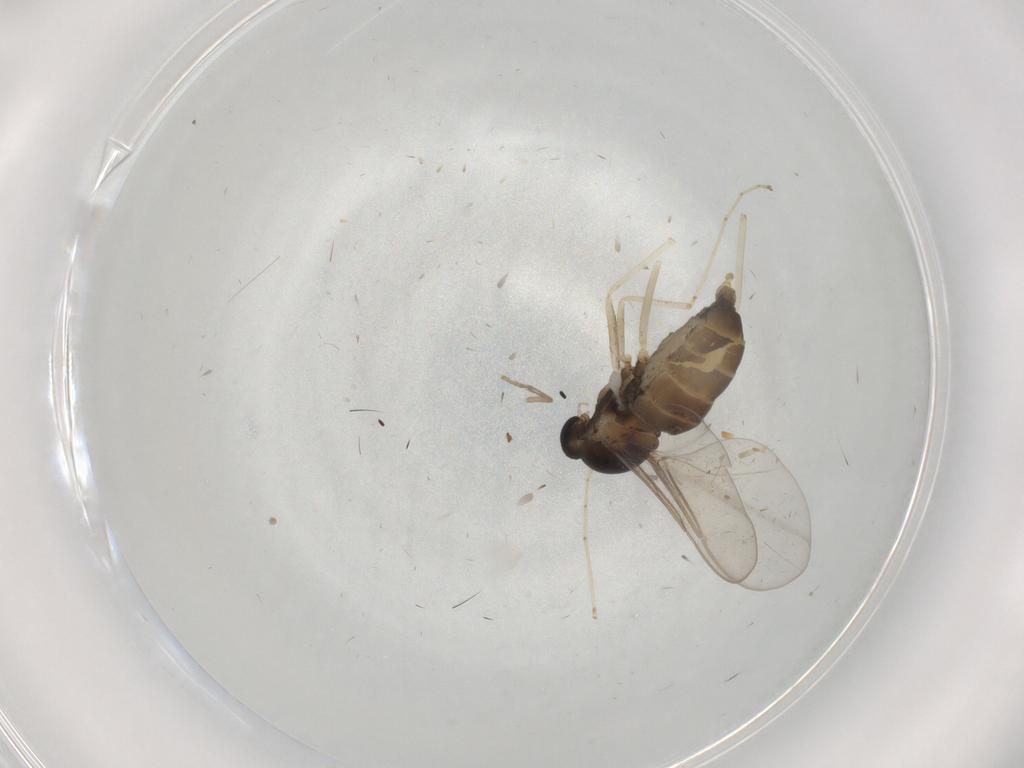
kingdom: Animalia
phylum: Arthropoda
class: Insecta
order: Diptera
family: Cecidomyiidae
